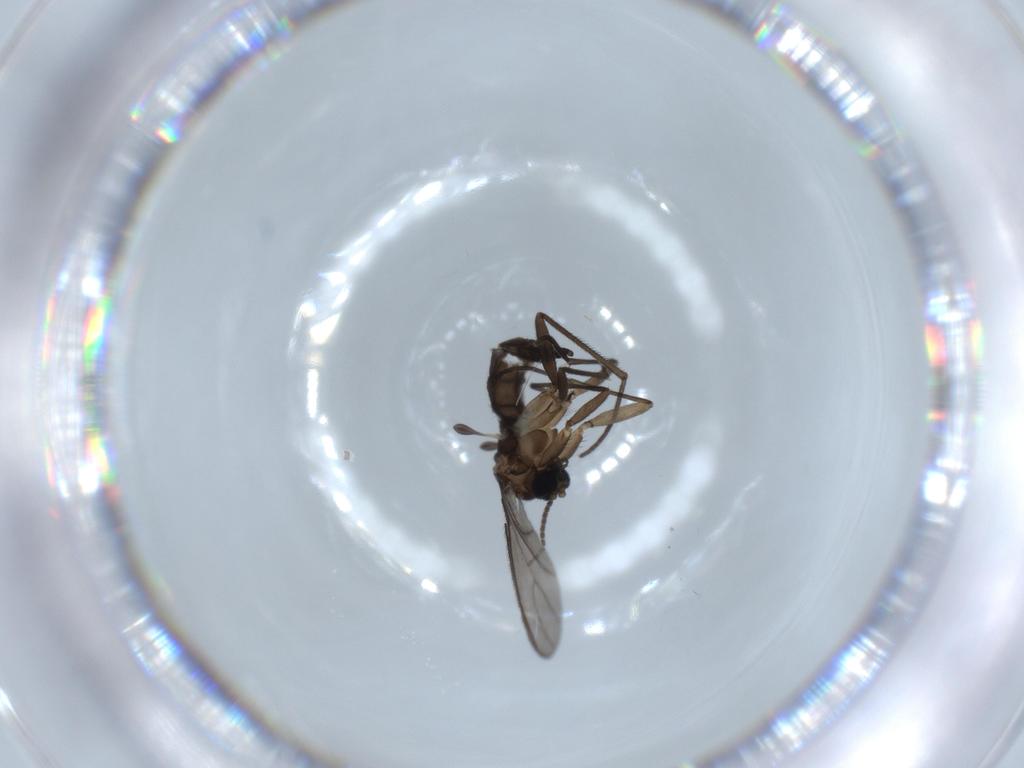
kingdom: Animalia
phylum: Arthropoda
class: Insecta
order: Diptera
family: Sciaridae
